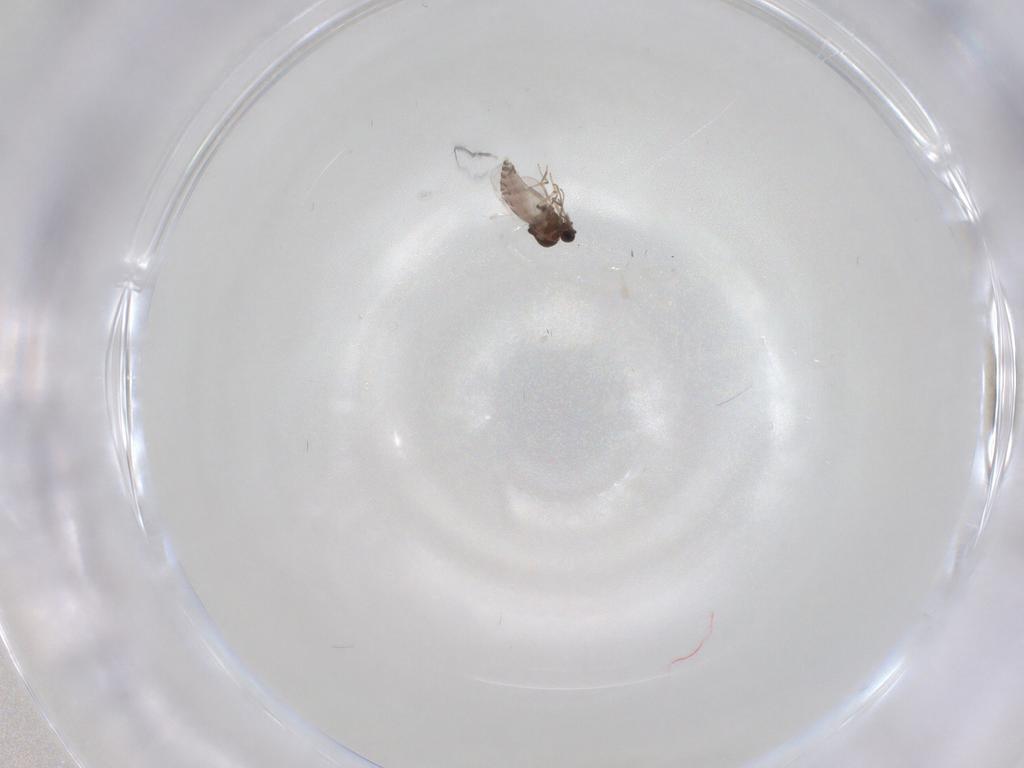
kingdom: Animalia
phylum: Arthropoda
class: Insecta
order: Diptera
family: Chironomidae
